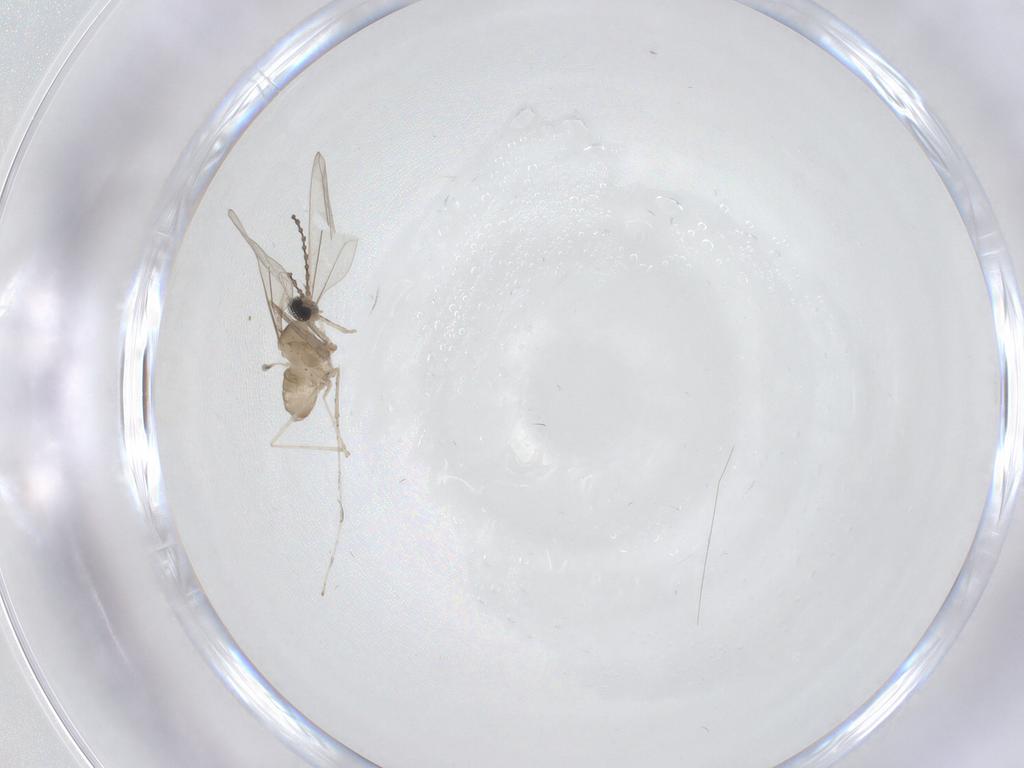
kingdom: Animalia
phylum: Arthropoda
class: Insecta
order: Diptera
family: Cecidomyiidae
